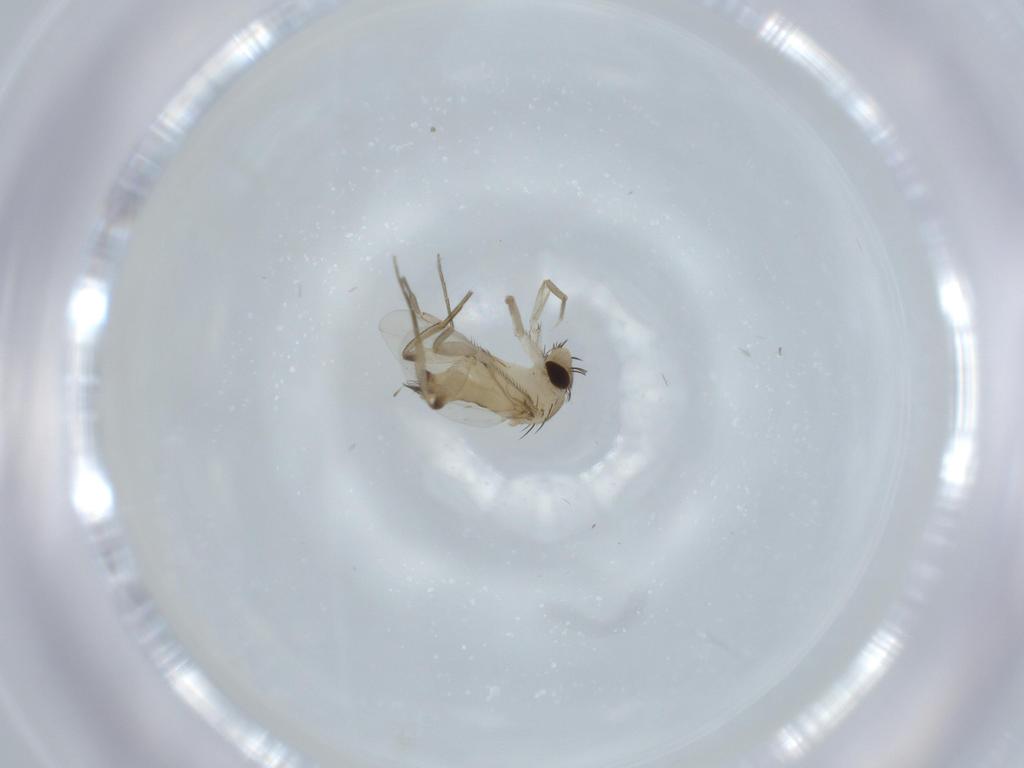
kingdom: Animalia
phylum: Arthropoda
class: Insecta
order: Diptera
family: Phoridae
